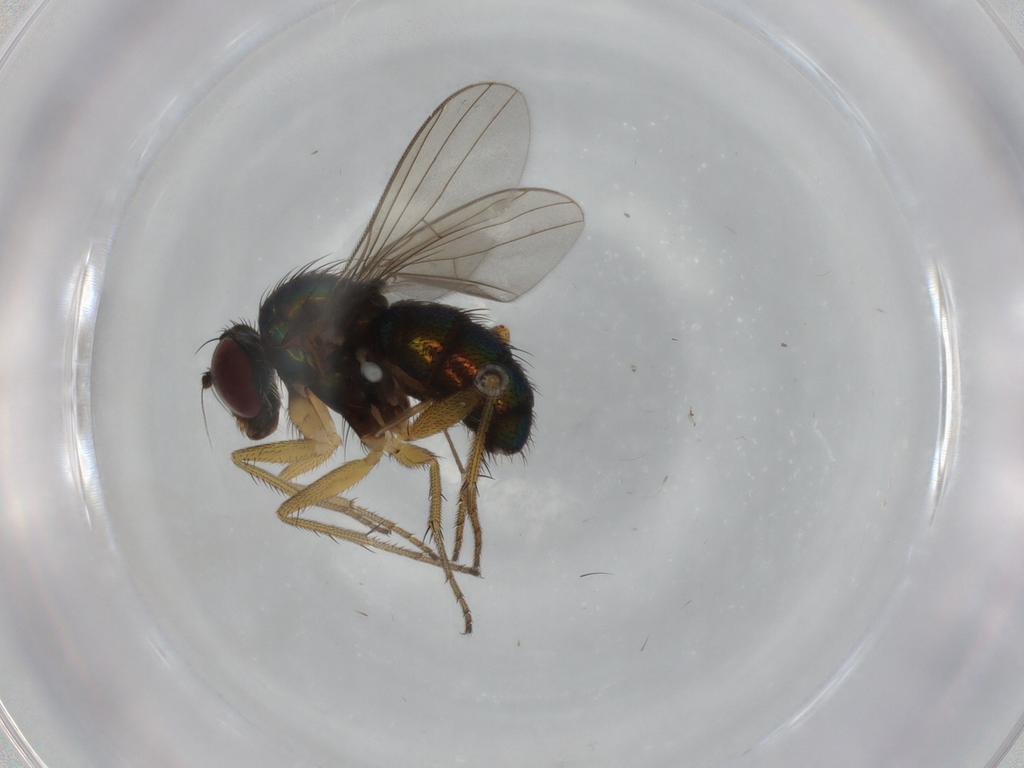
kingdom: Animalia
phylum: Arthropoda
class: Insecta
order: Diptera
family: Dolichopodidae
